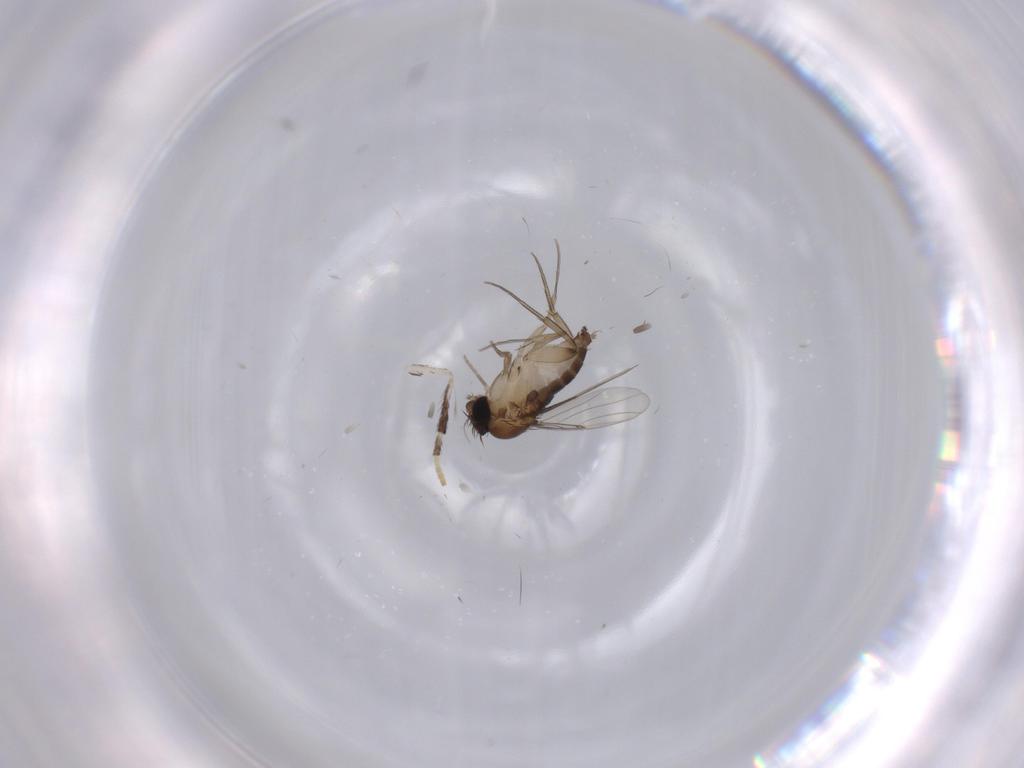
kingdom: Animalia
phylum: Arthropoda
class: Insecta
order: Diptera
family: Phoridae
